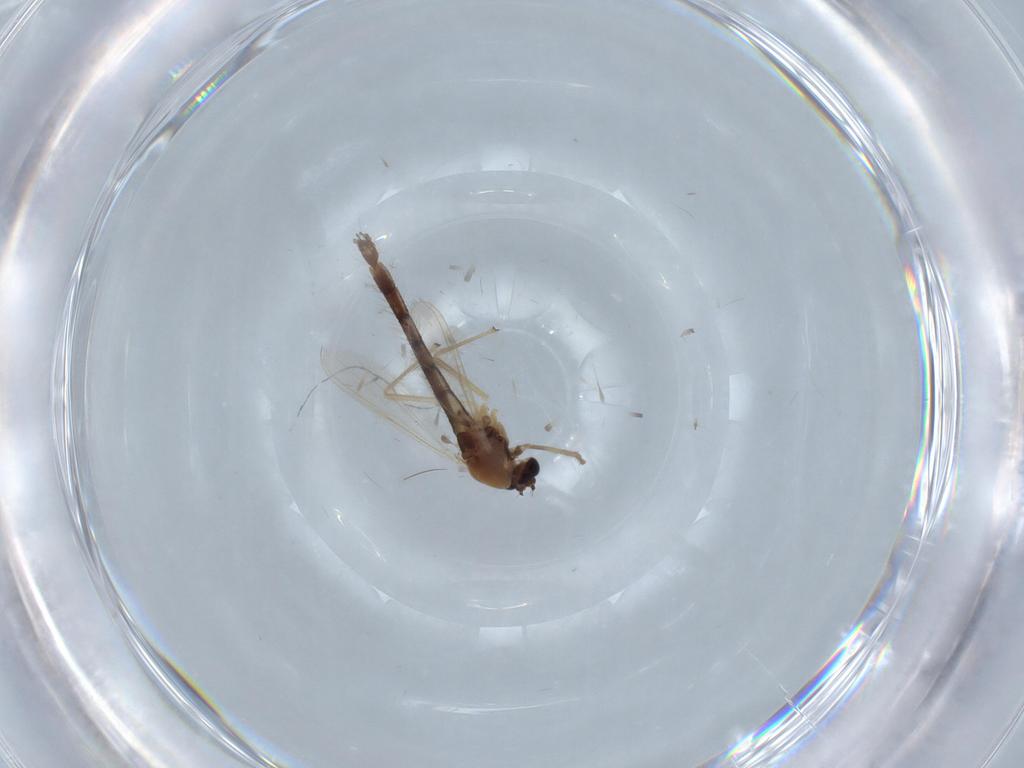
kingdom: Animalia
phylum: Arthropoda
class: Insecta
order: Diptera
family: Chironomidae
